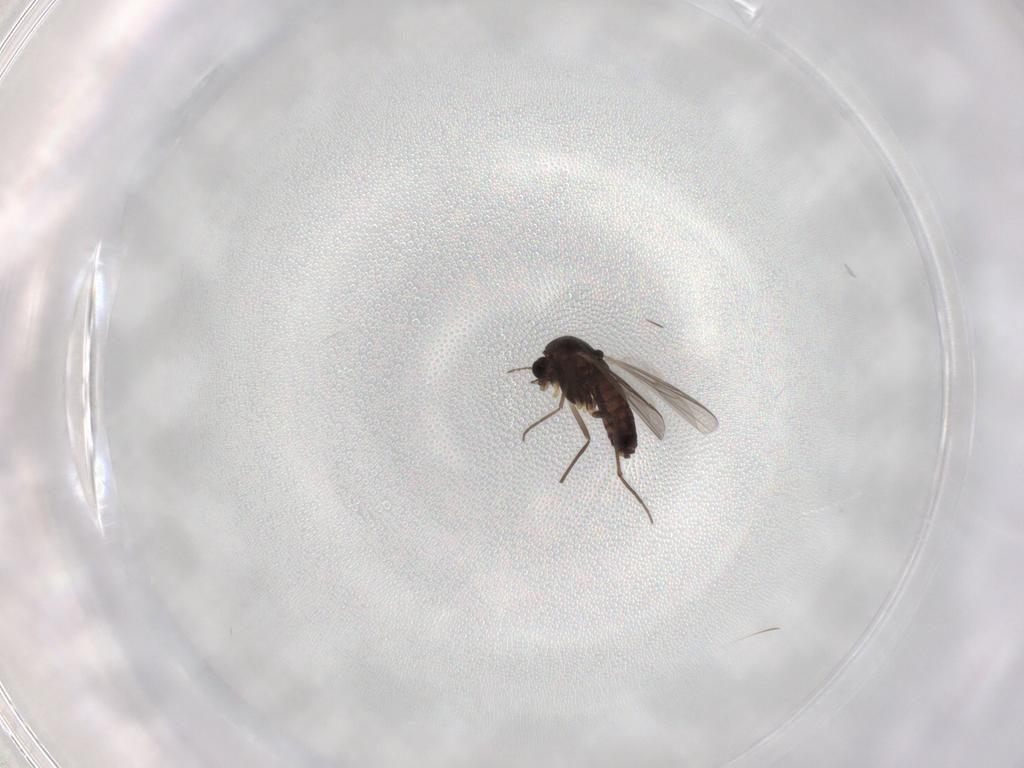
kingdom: Animalia
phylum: Arthropoda
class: Insecta
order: Diptera
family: Chironomidae
